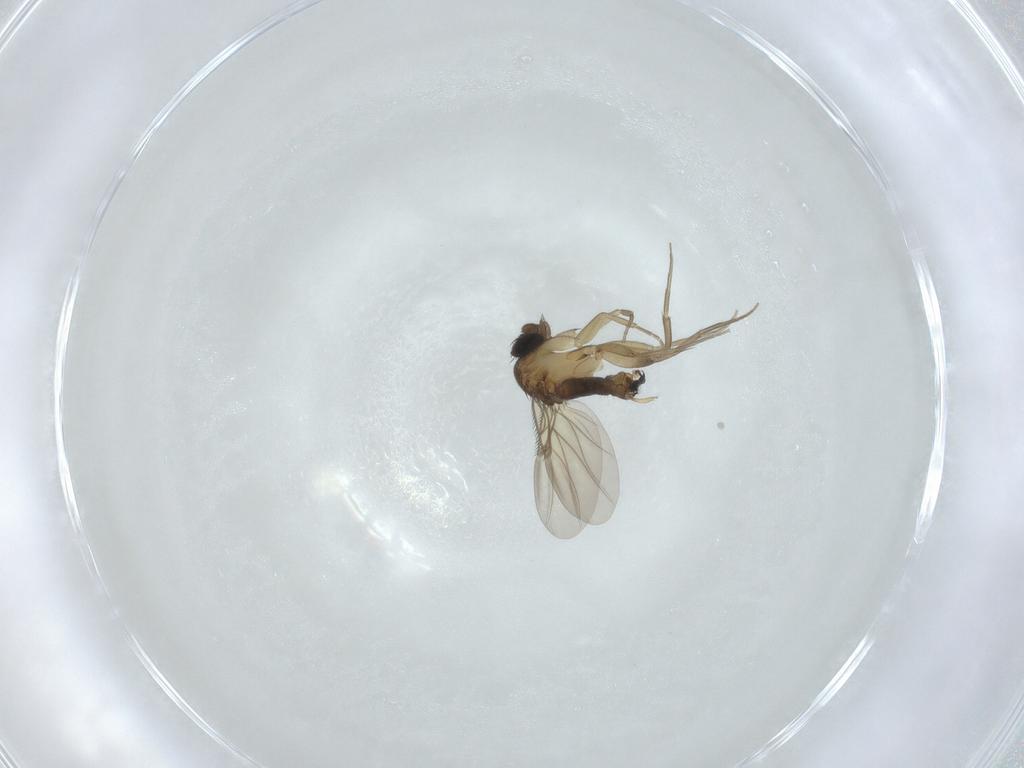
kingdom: Animalia
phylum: Arthropoda
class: Insecta
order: Diptera
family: Phoridae
